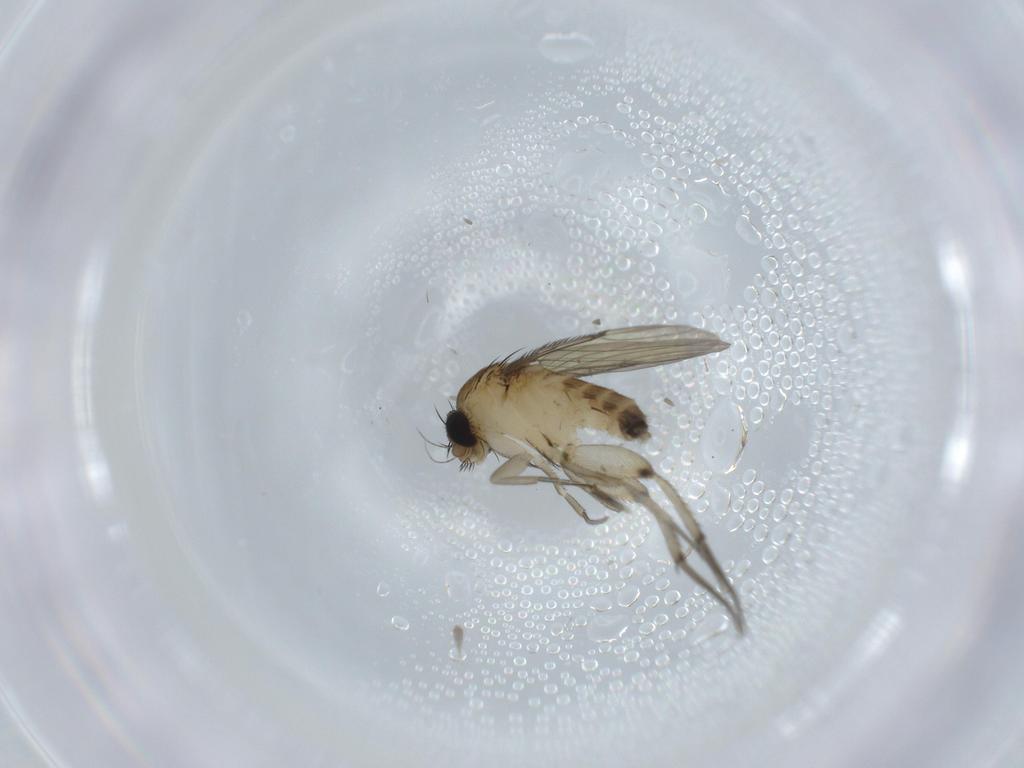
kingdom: Animalia
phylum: Arthropoda
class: Insecta
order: Diptera
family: Phoridae
